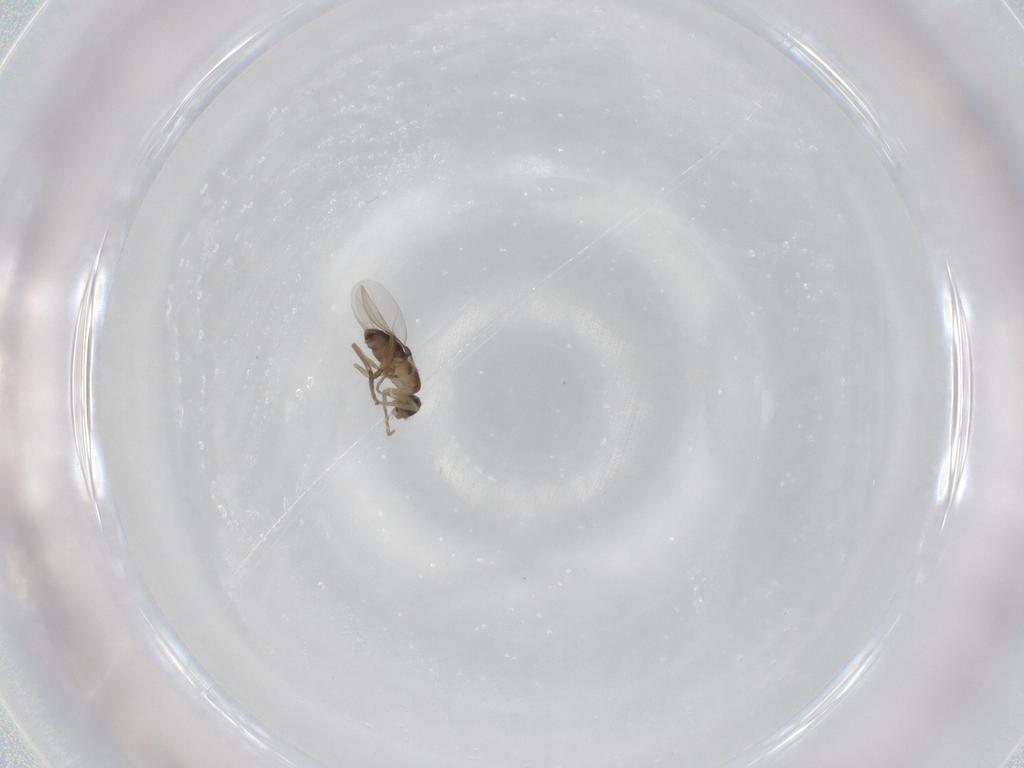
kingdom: Animalia
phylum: Arthropoda
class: Insecta
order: Diptera
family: Phoridae
